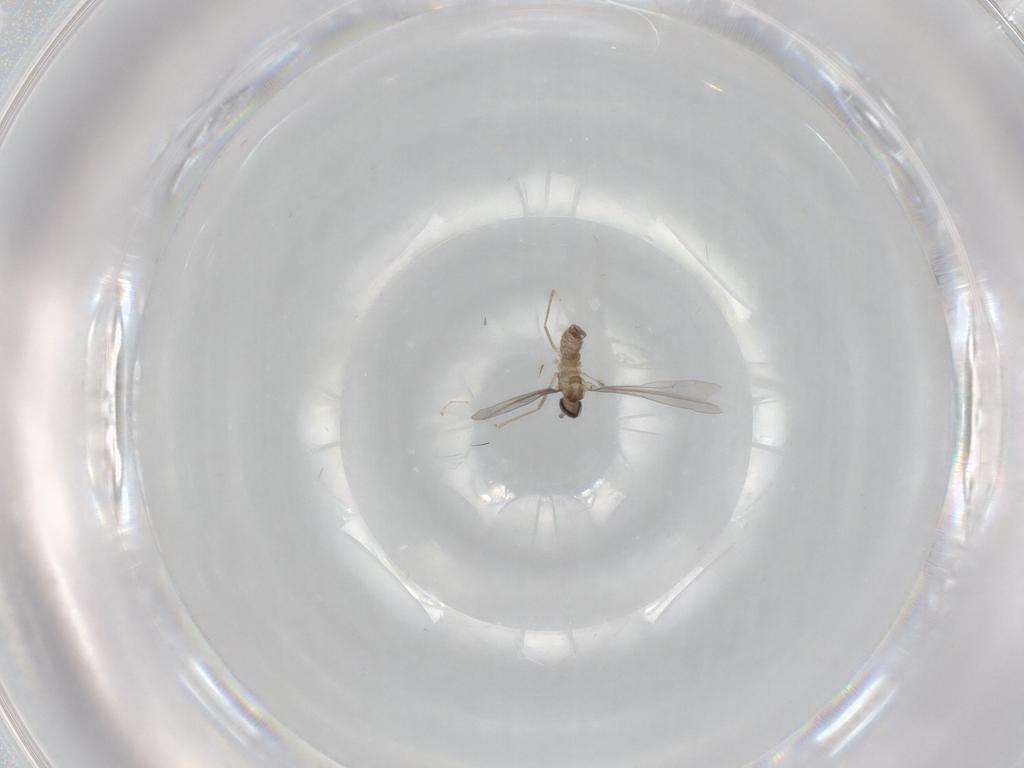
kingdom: Animalia
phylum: Arthropoda
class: Insecta
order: Diptera
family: Cecidomyiidae
